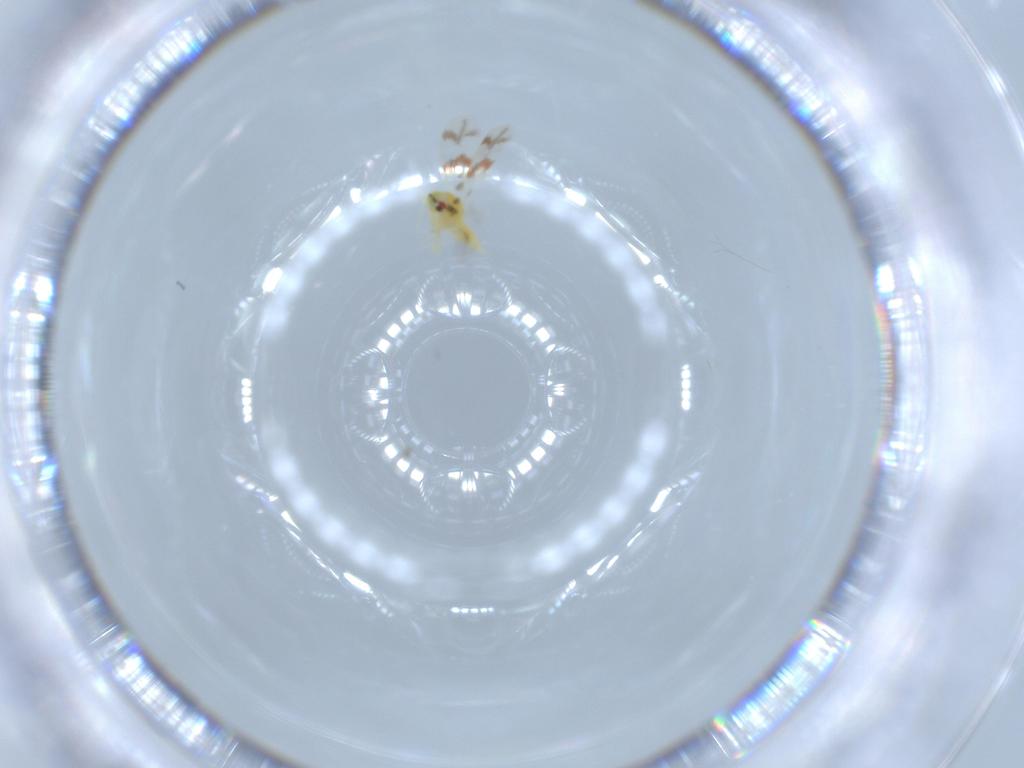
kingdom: Animalia
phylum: Arthropoda
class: Insecta
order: Hemiptera
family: Aleyrodidae
